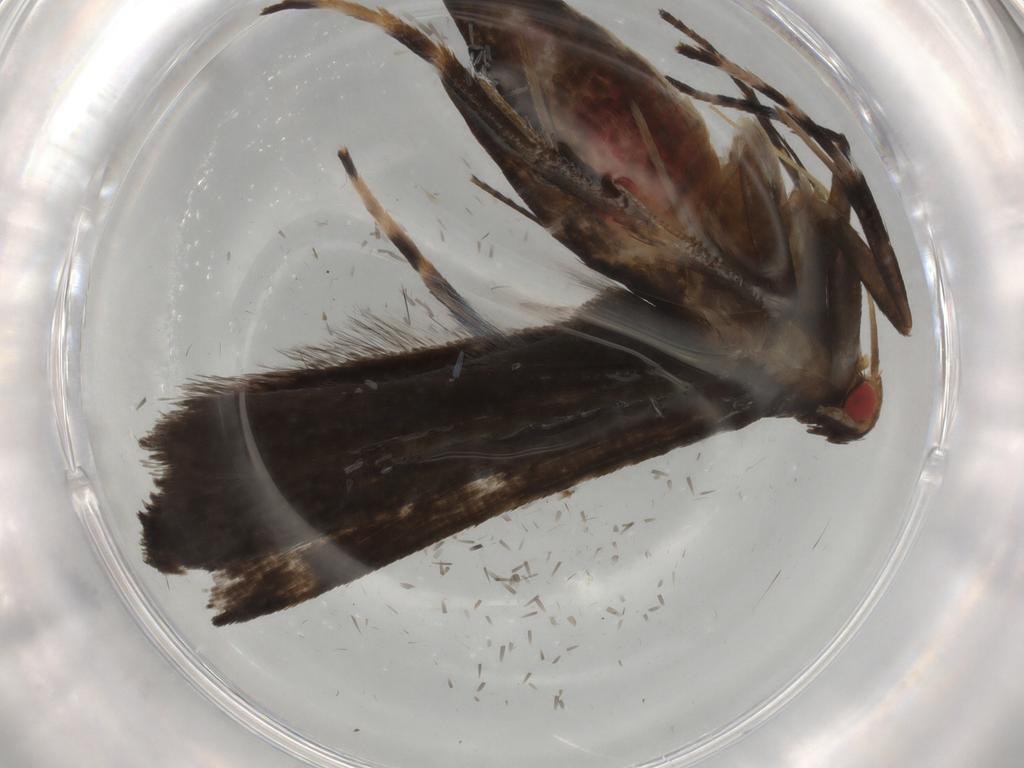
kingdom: Animalia
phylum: Arthropoda
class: Insecta
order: Lepidoptera
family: Gelechiidae
